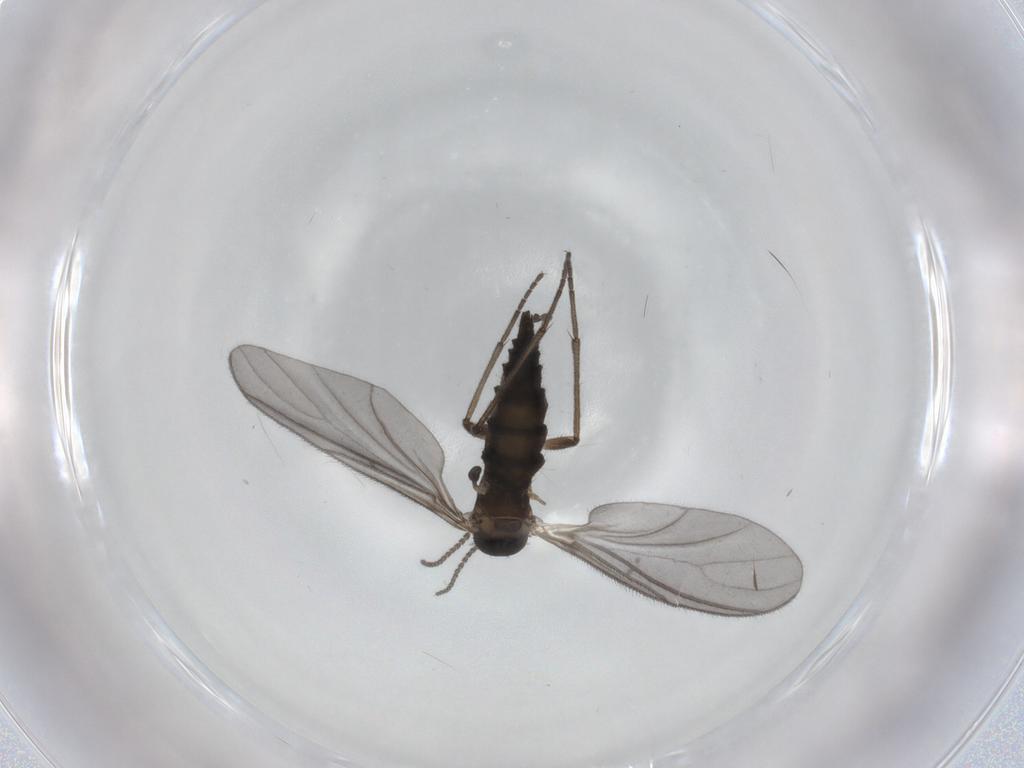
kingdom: Animalia
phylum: Arthropoda
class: Insecta
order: Diptera
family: Sciaridae
